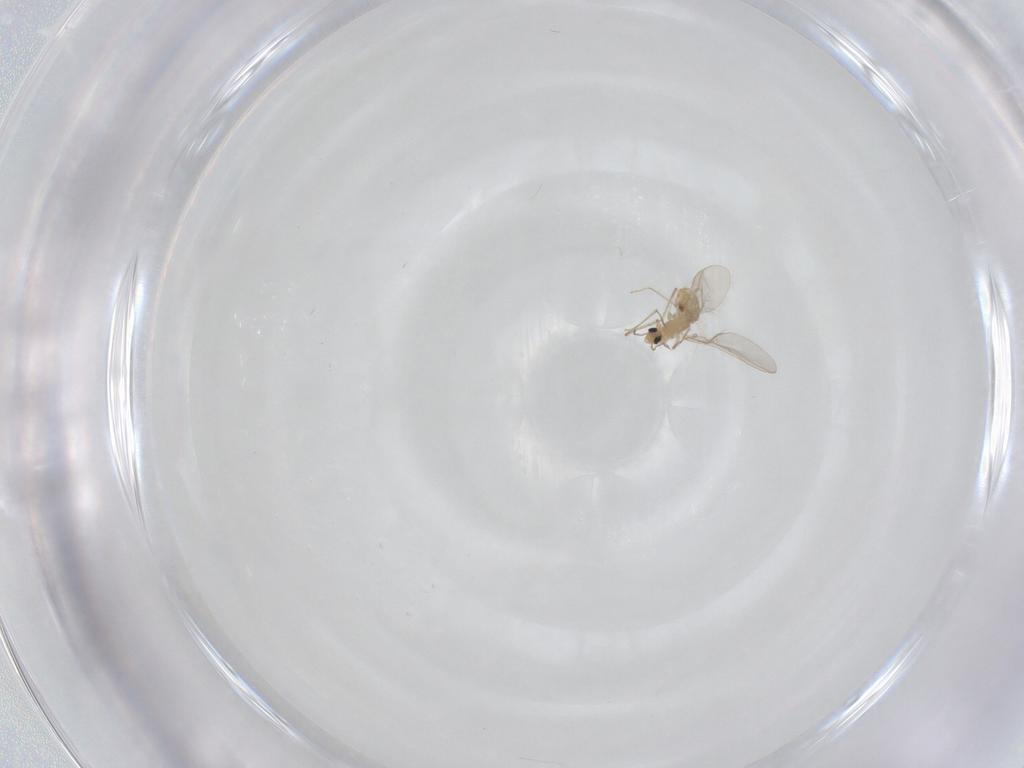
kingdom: Animalia
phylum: Arthropoda
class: Insecta
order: Diptera
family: Chironomidae
